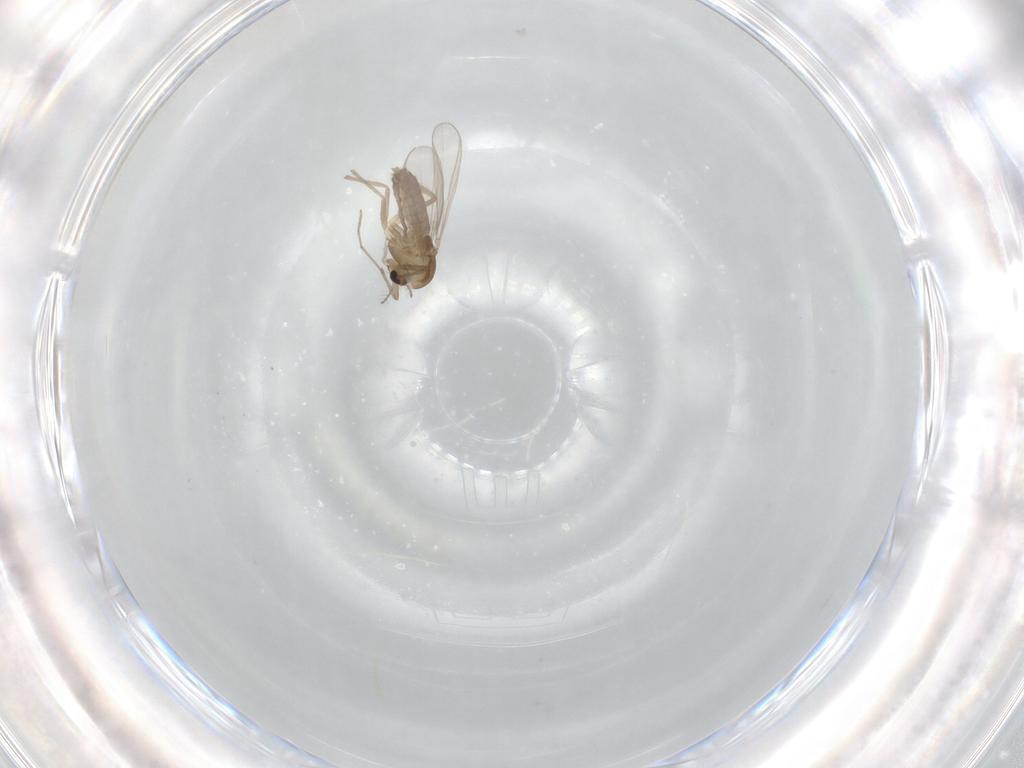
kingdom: Animalia
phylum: Arthropoda
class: Insecta
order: Diptera
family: Chironomidae
